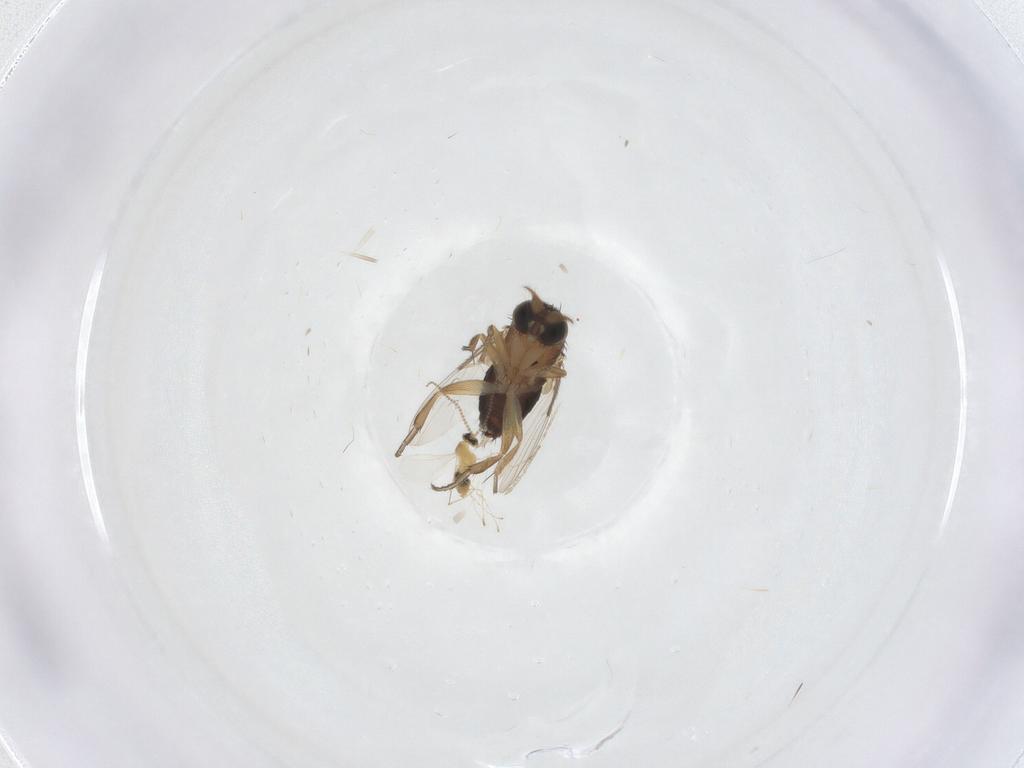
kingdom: Animalia
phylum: Arthropoda
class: Insecta
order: Diptera
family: Phoridae
